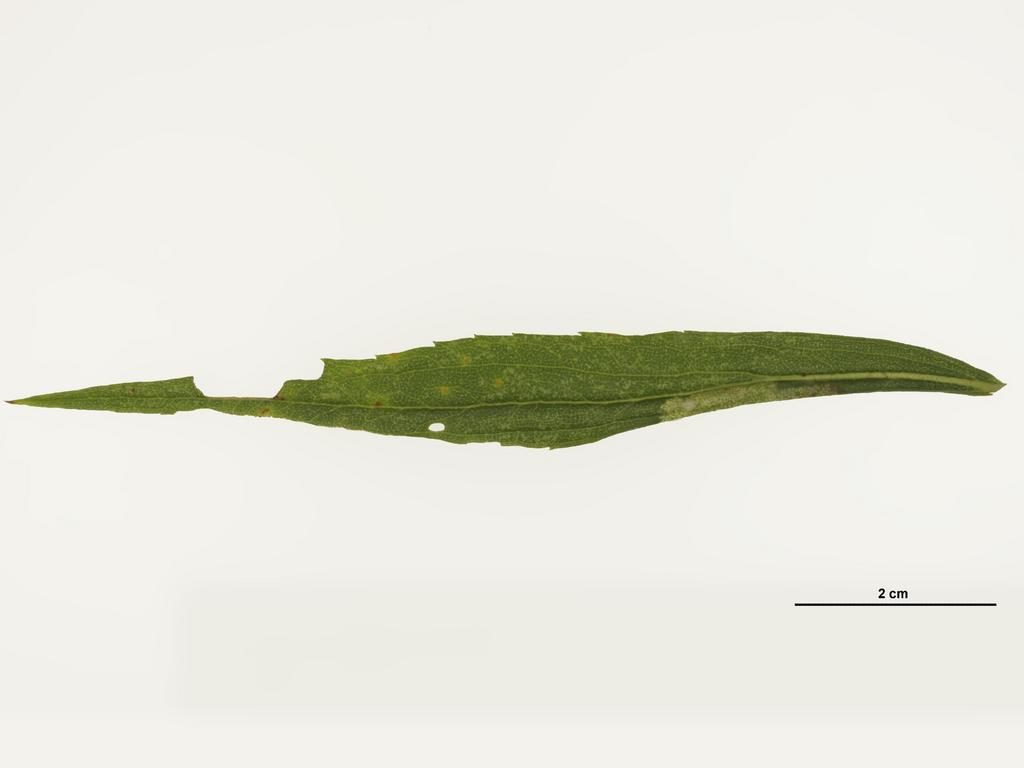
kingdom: Animalia
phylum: Arthropoda
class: Insecta
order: Hymenoptera
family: Eulophidae
